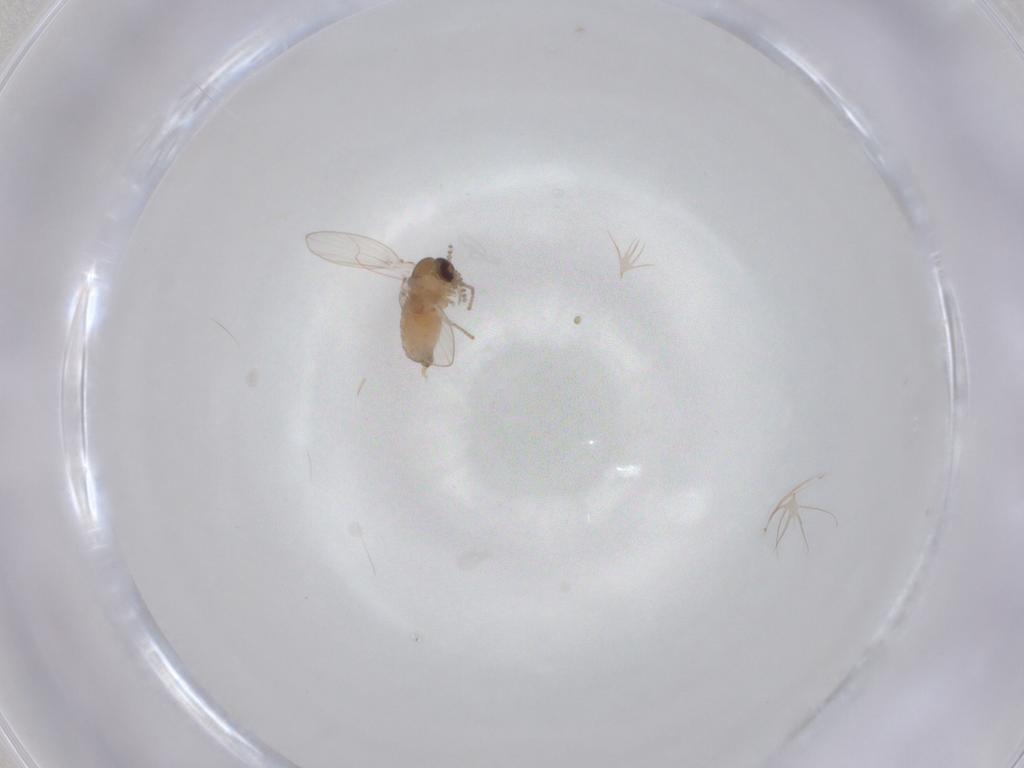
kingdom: Animalia
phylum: Arthropoda
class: Insecta
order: Diptera
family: Psychodidae
